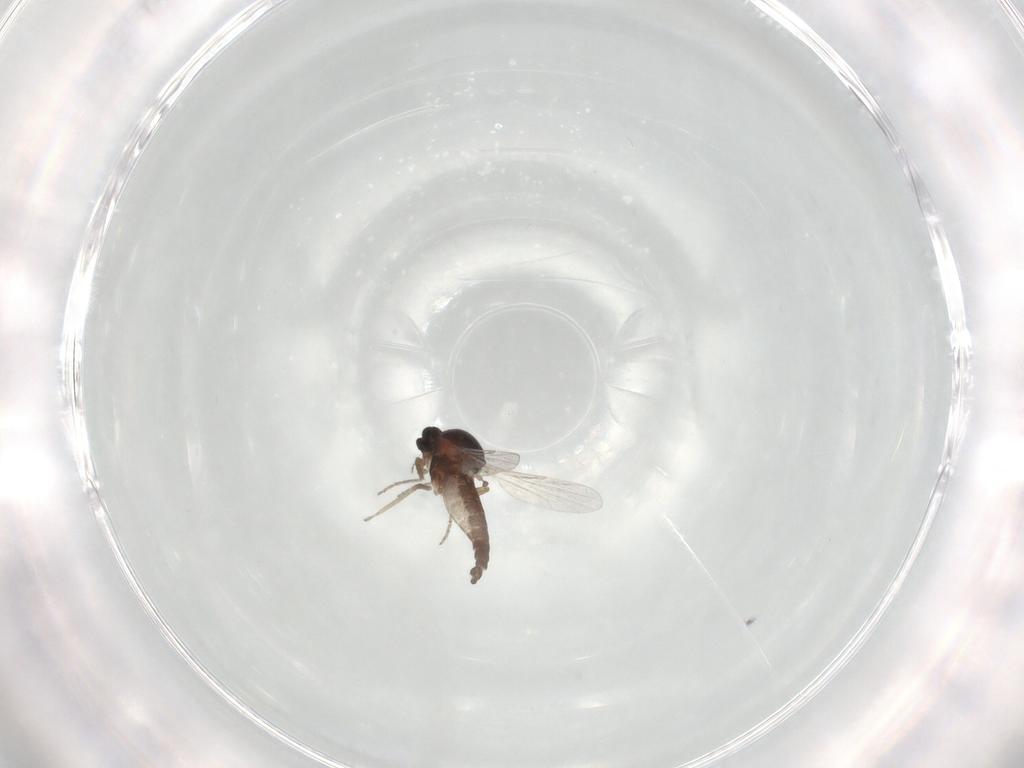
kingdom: Animalia
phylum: Arthropoda
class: Insecta
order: Diptera
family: Ceratopogonidae
